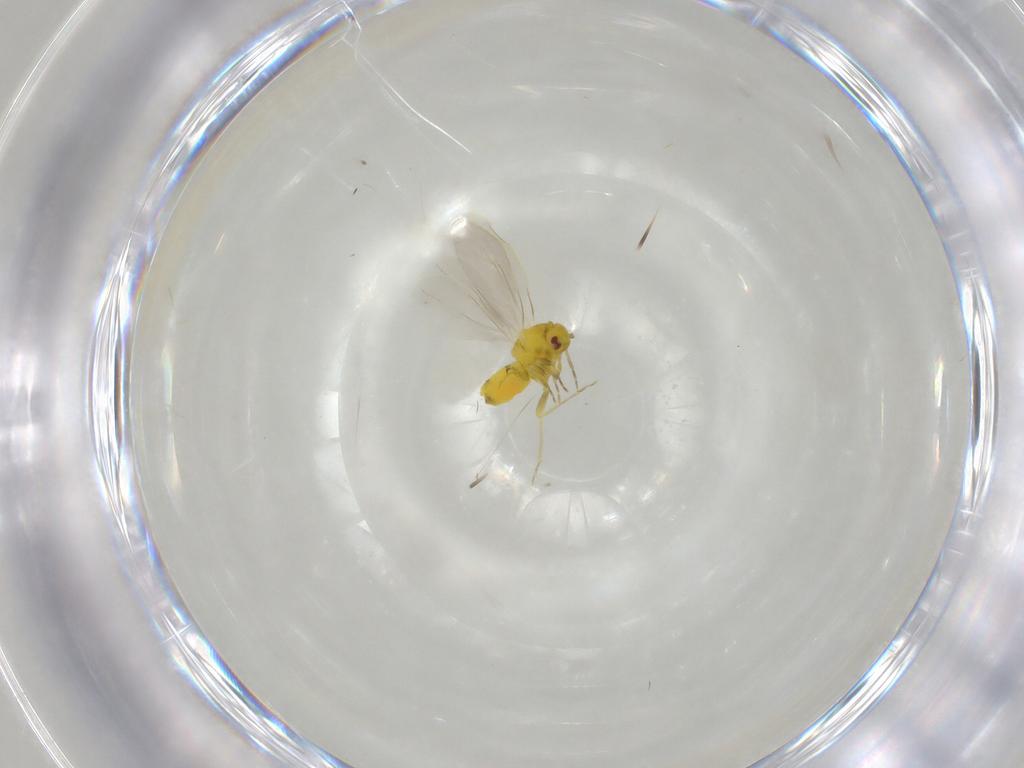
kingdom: Animalia
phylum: Arthropoda
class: Insecta
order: Hemiptera
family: Aleyrodidae
